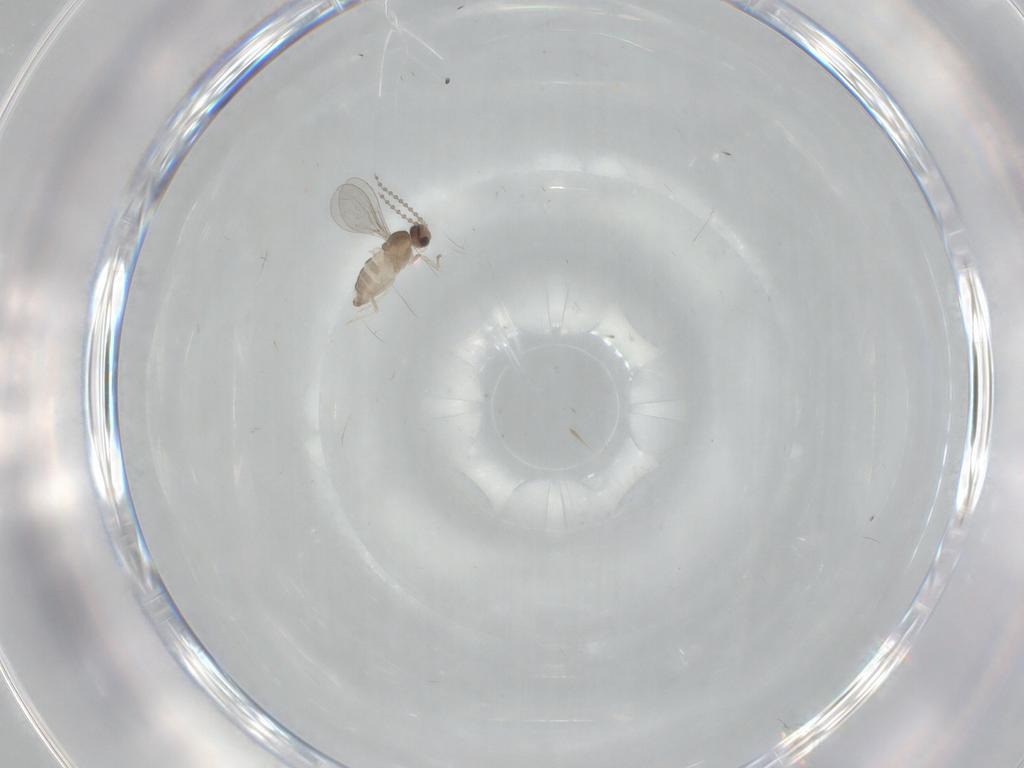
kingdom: Animalia
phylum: Arthropoda
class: Insecta
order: Diptera
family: Cecidomyiidae
